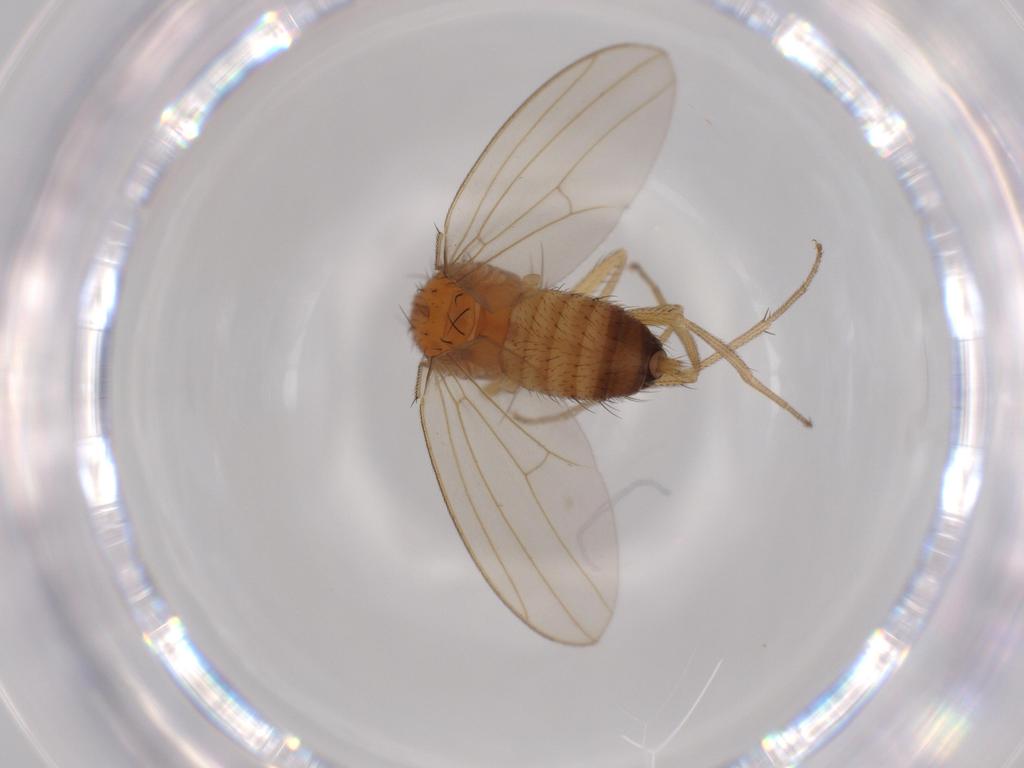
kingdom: Animalia
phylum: Arthropoda
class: Insecta
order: Diptera
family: Drosophilidae
